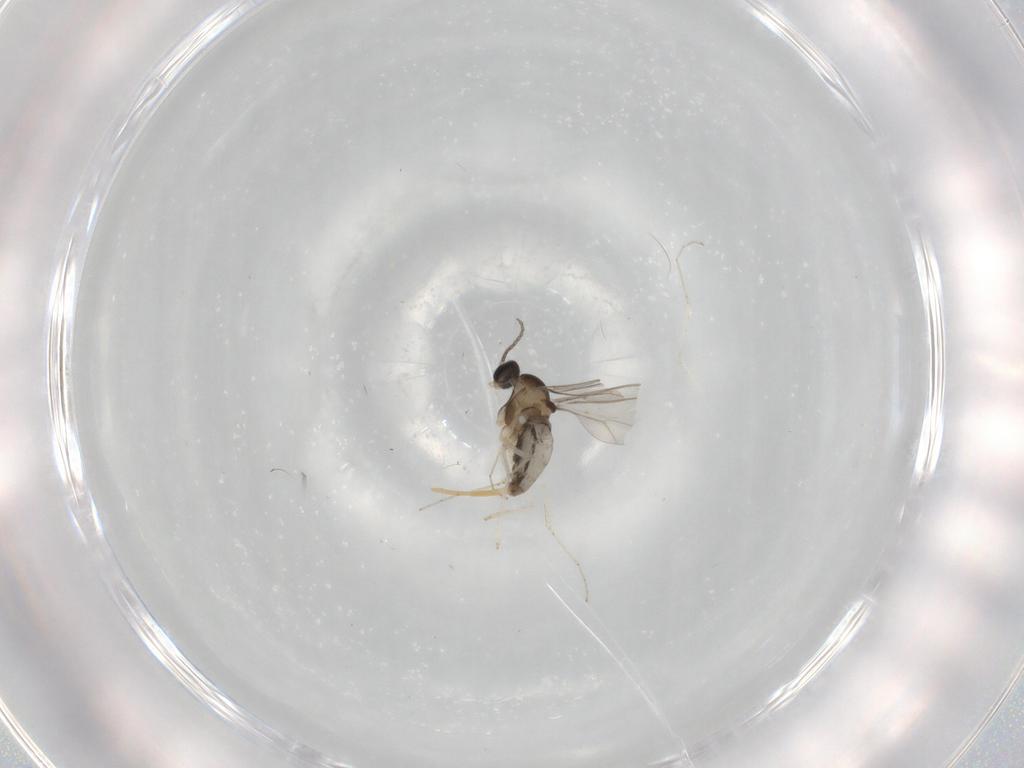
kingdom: Animalia
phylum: Arthropoda
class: Insecta
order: Diptera
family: Cecidomyiidae
